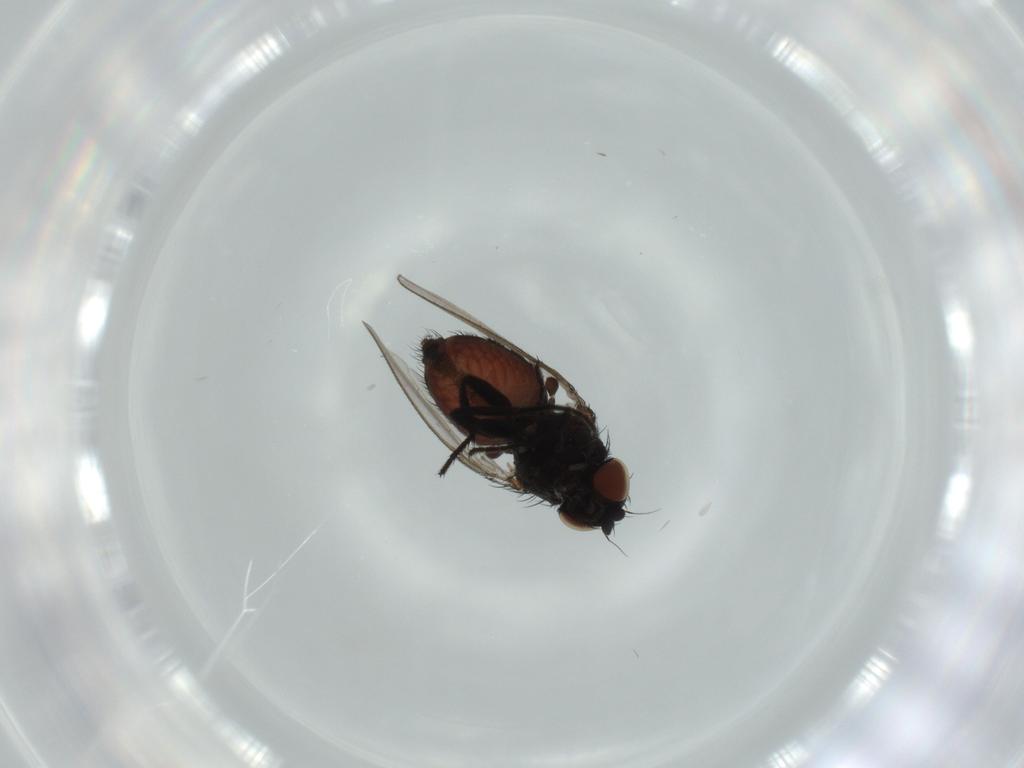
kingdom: Animalia
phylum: Arthropoda
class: Insecta
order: Diptera
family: Milichiidae
